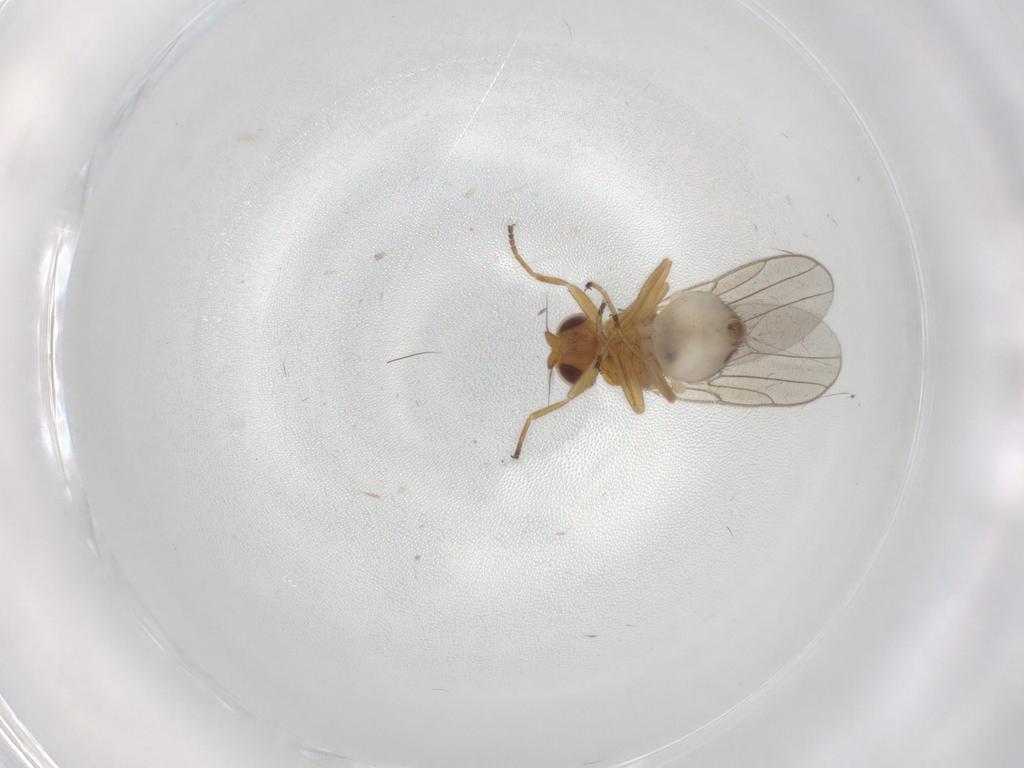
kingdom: Animalia
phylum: Arthropoda
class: Insecta
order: Diptera
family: Chloropidae
